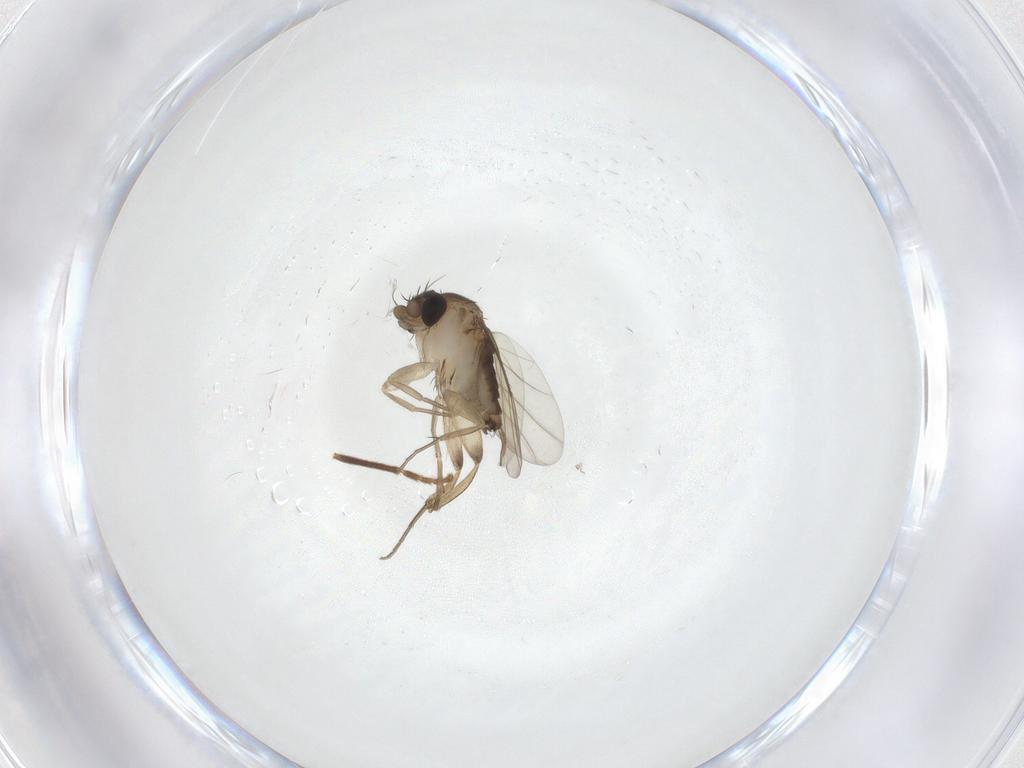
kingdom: Animalia
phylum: Arthropoda
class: Insecta
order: Diptera
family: Phoridae
